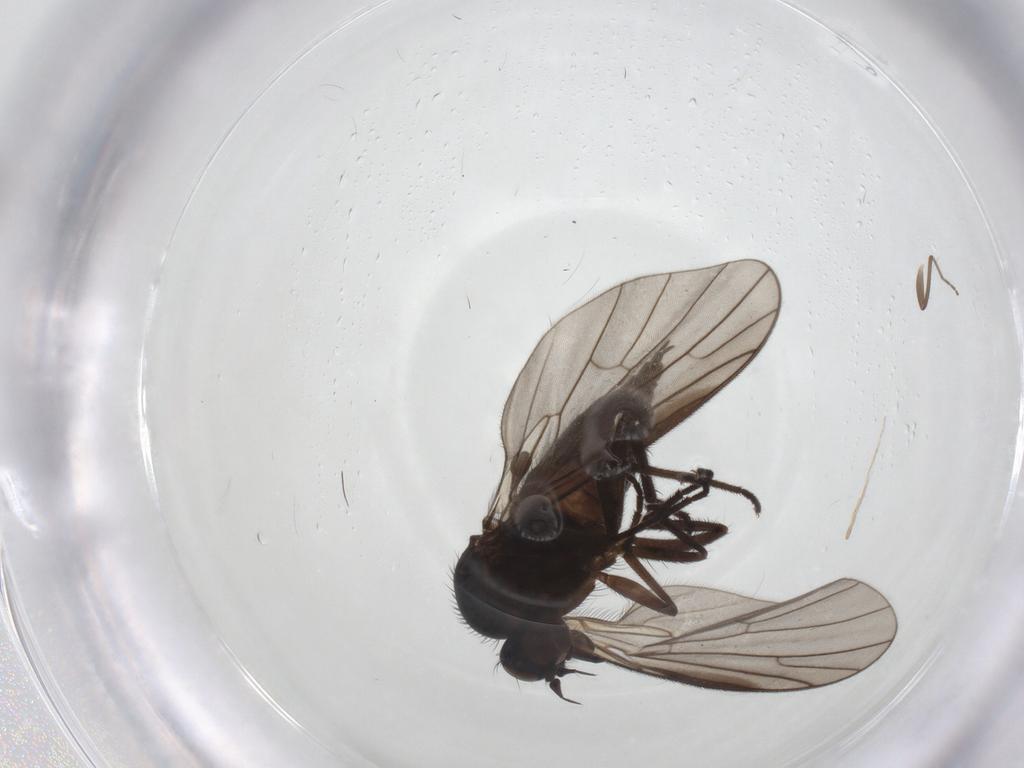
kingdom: Animalia
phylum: Arthropoda
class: Insecta
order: Diptera
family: Empididae
